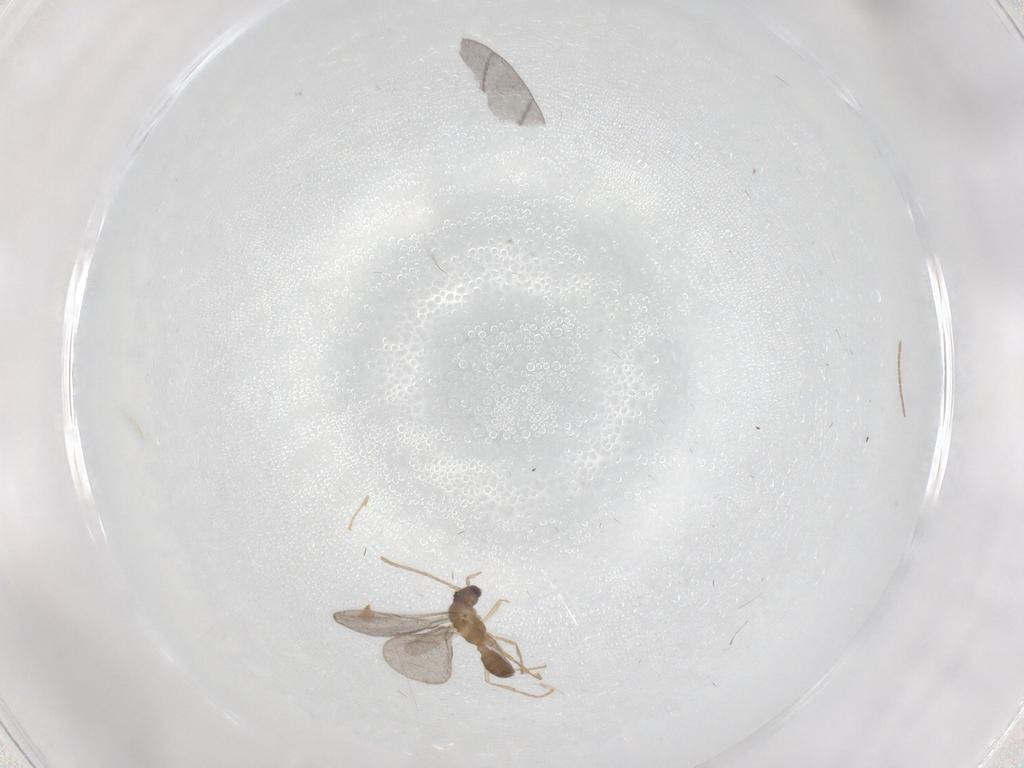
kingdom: Animalia
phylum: Arthropoda
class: Insecta
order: Hymenoptera
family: Formicidae
